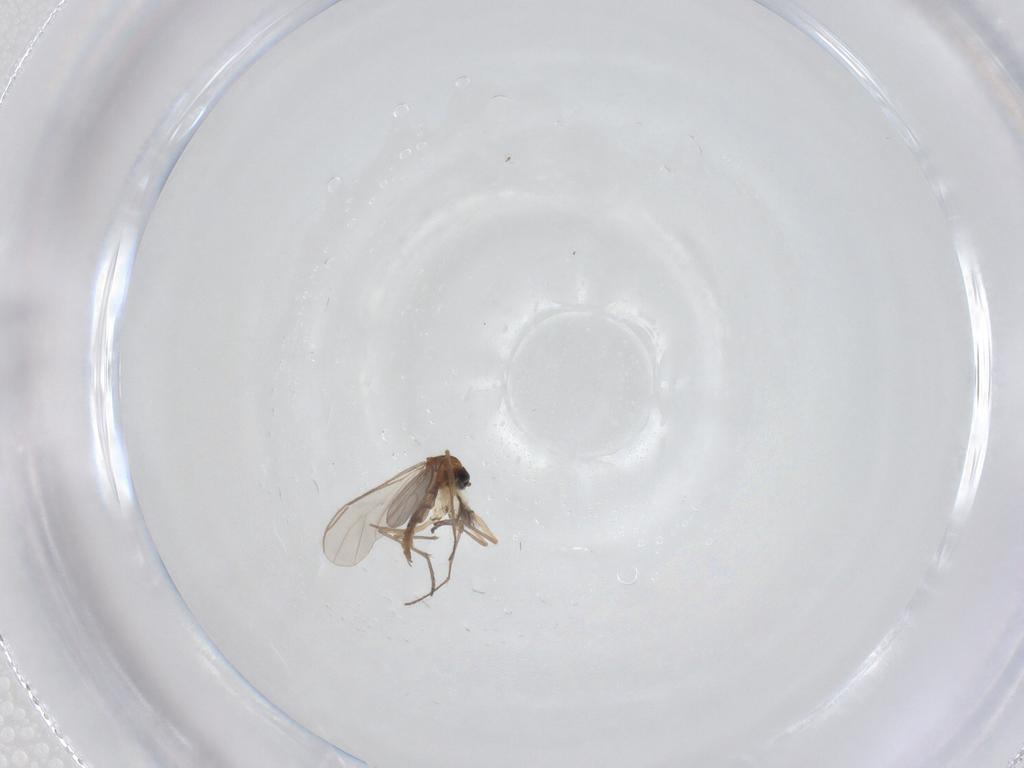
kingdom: Animalia
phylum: Arthropoda
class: Insecta
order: Diptera
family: Sciaridae
